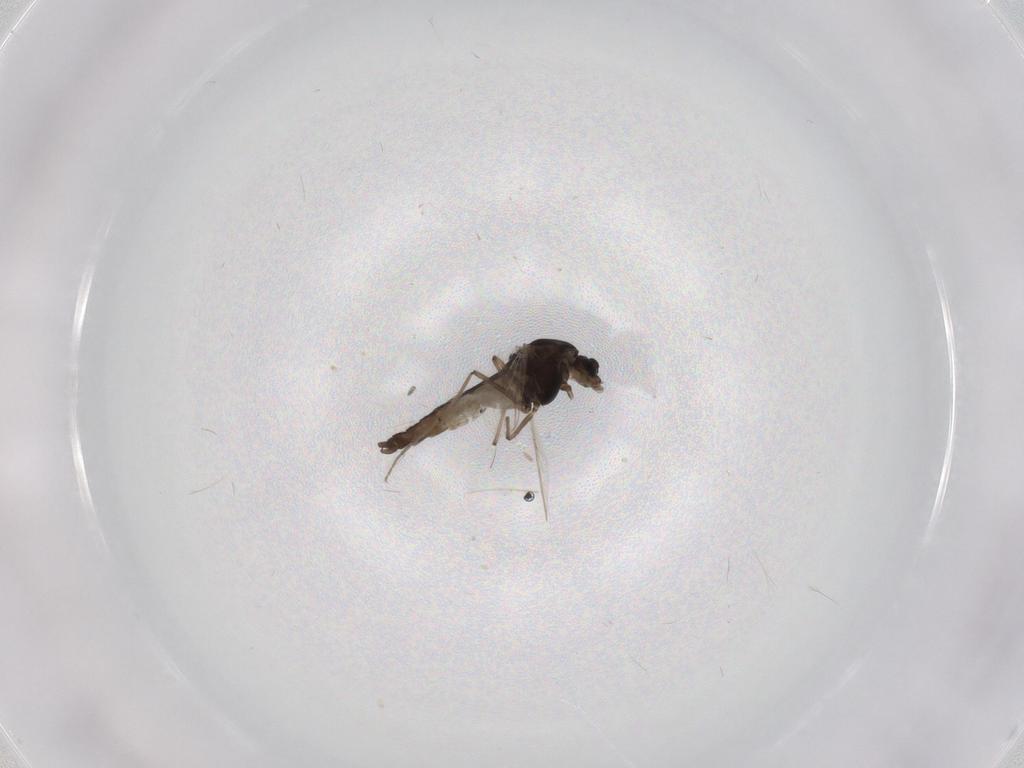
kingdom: Animalia
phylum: Arthropoda
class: Insecta
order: Diptera
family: Chironomidae
